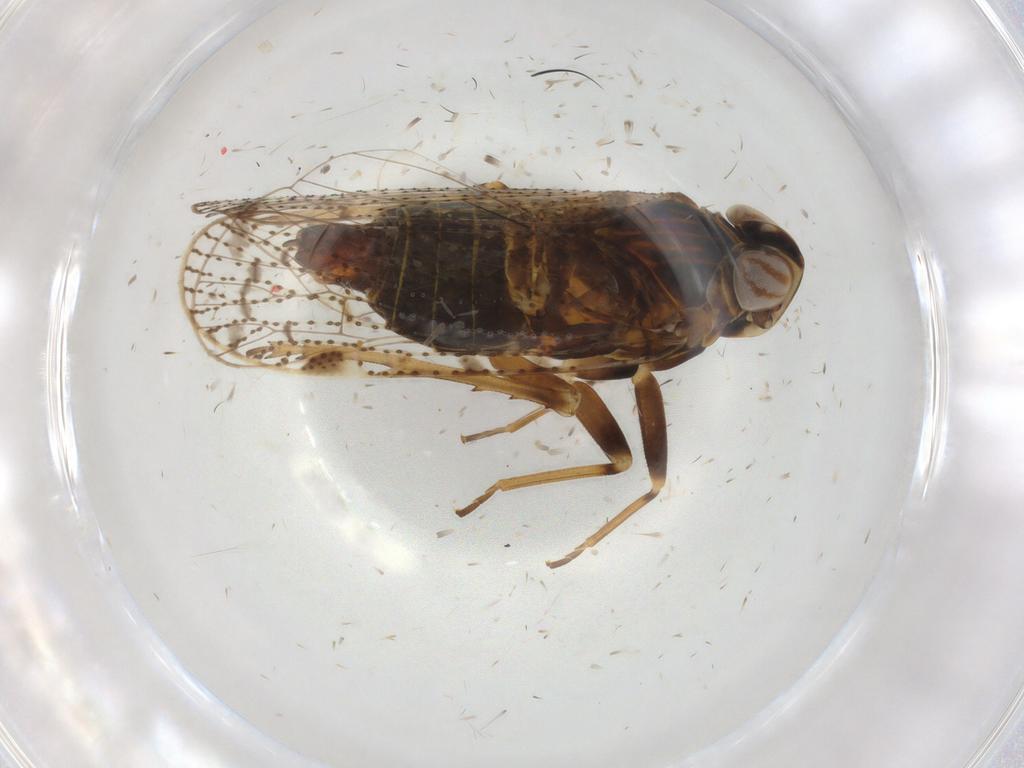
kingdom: Animalia
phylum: Arthropoda
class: Insecta
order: Hemiptera
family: Cixiidae
